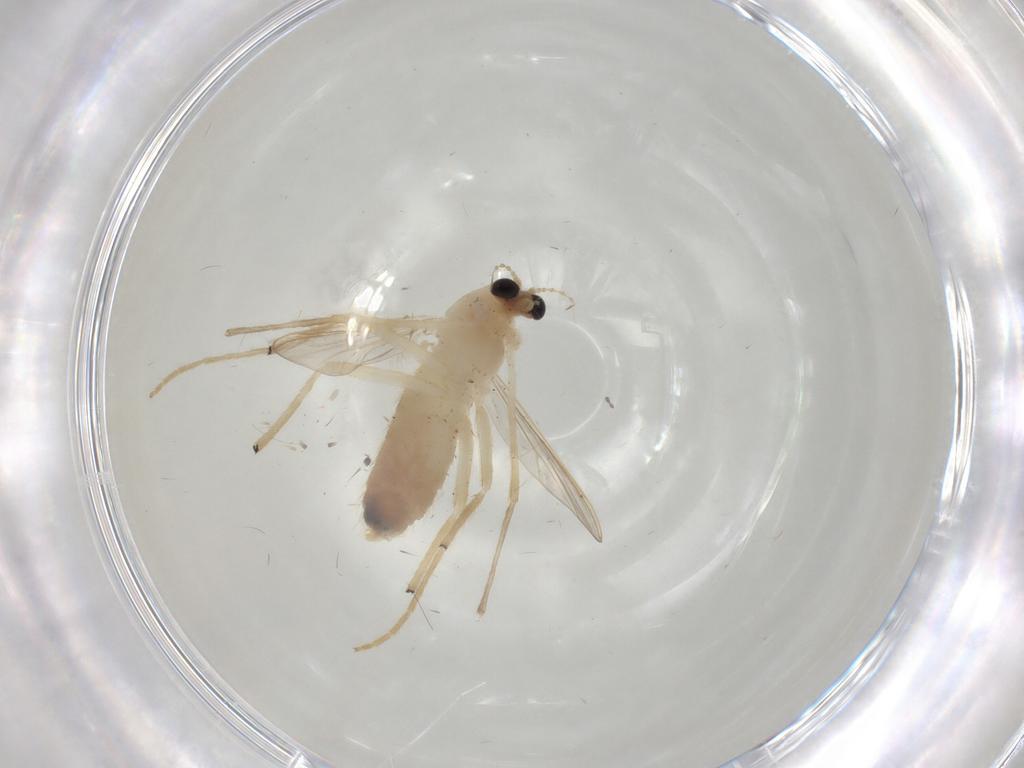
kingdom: Animalia
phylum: Arthropoda
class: Insecta
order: Diptera
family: Chironomidae
